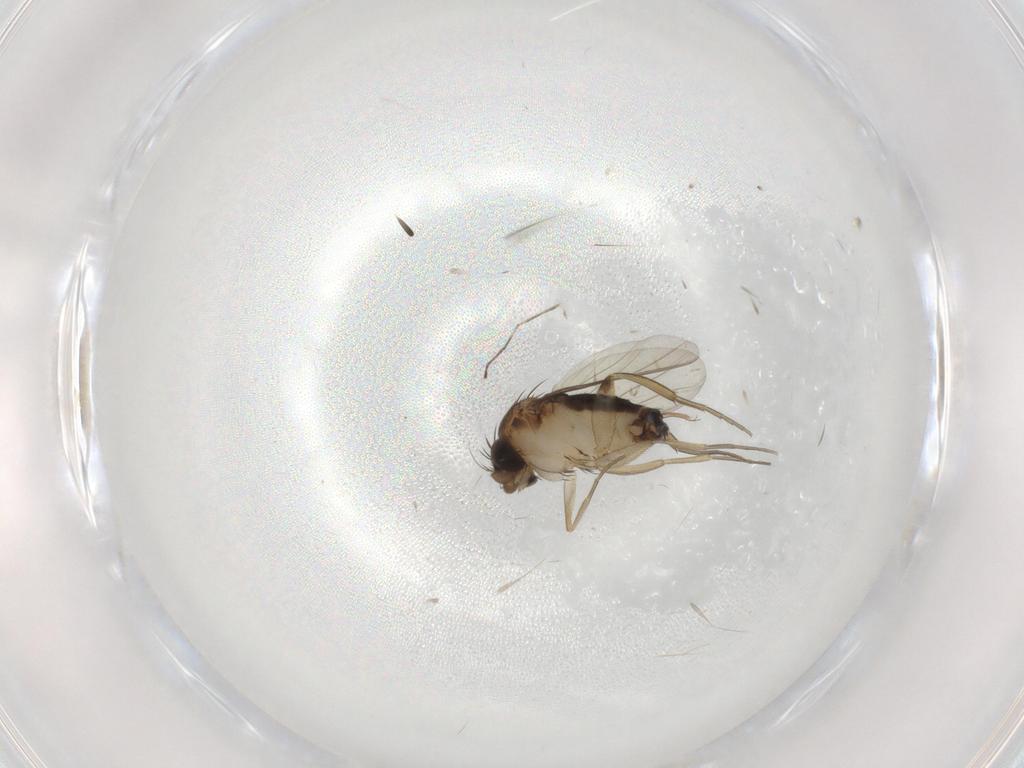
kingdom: Animalia
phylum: Arthropoda
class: Insecta
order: Diptera
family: Phoridae
